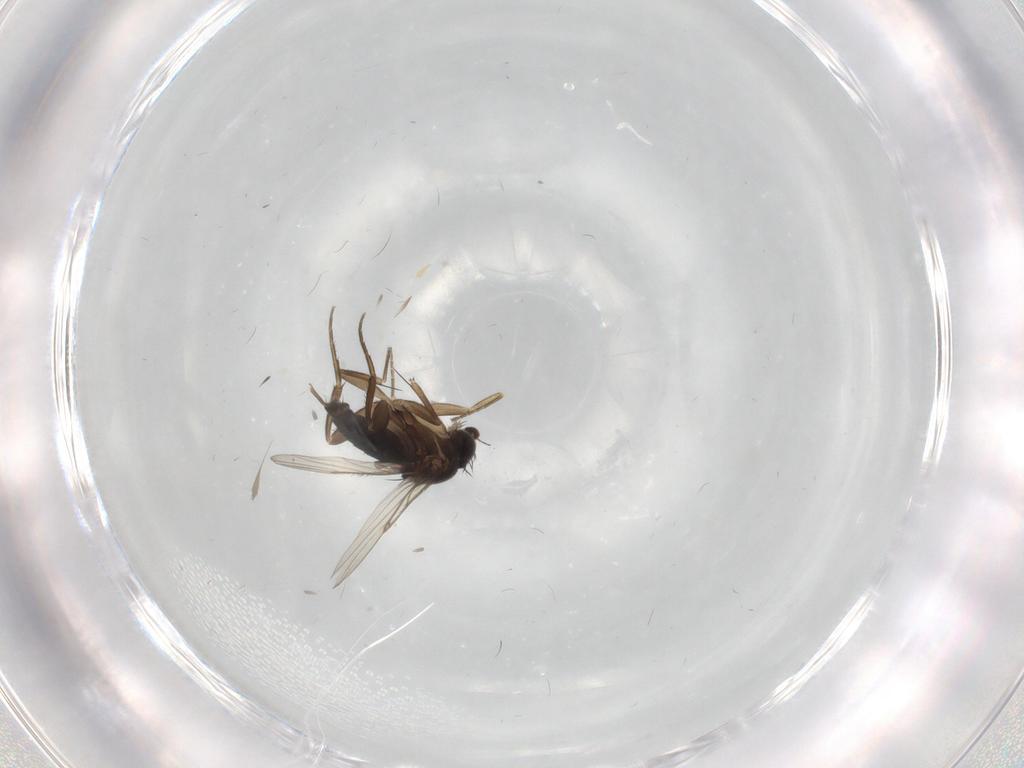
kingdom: Animalia
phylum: Arthropoda
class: Insecta
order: Diptera
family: Phoridae
